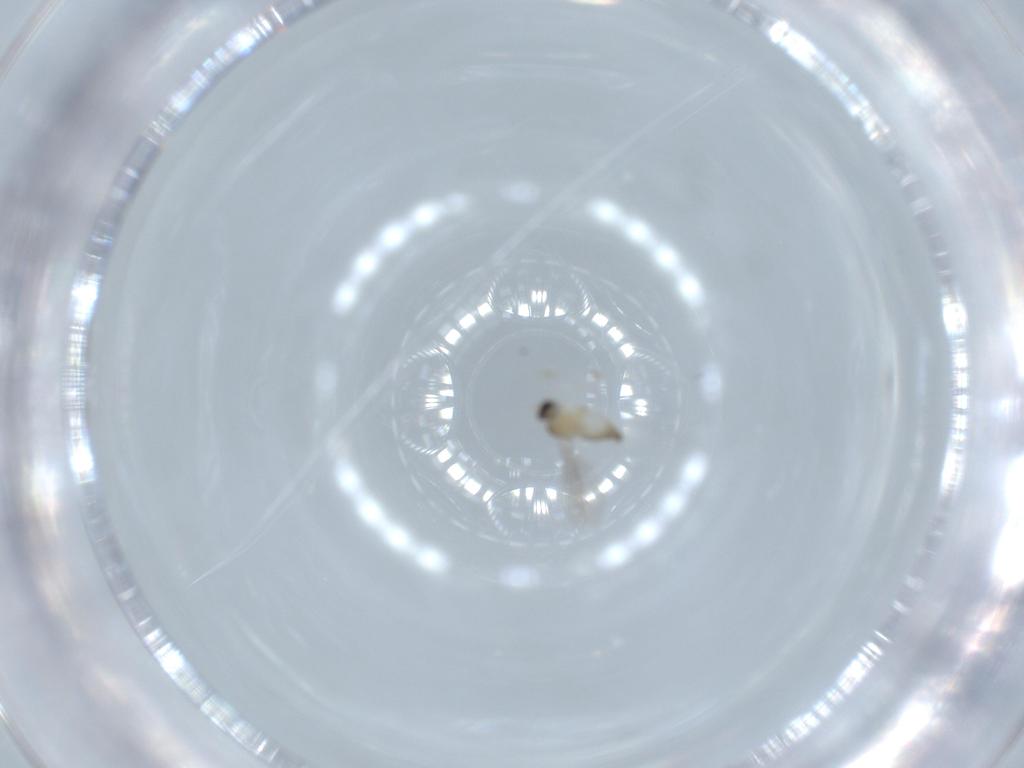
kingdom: Animalia
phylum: Arthropoda
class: Insecta
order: Diptera
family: Cecidomyiidae
